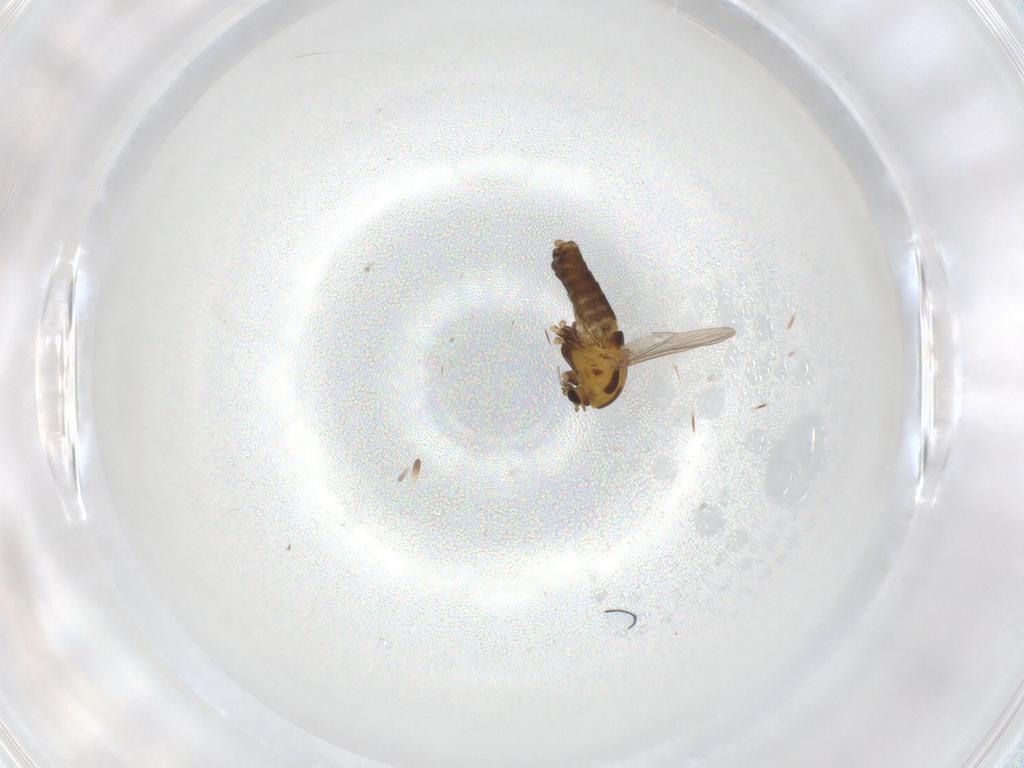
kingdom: Animalia
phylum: Arthropoda
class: Insecta
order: Diptera
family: Chironomidae
